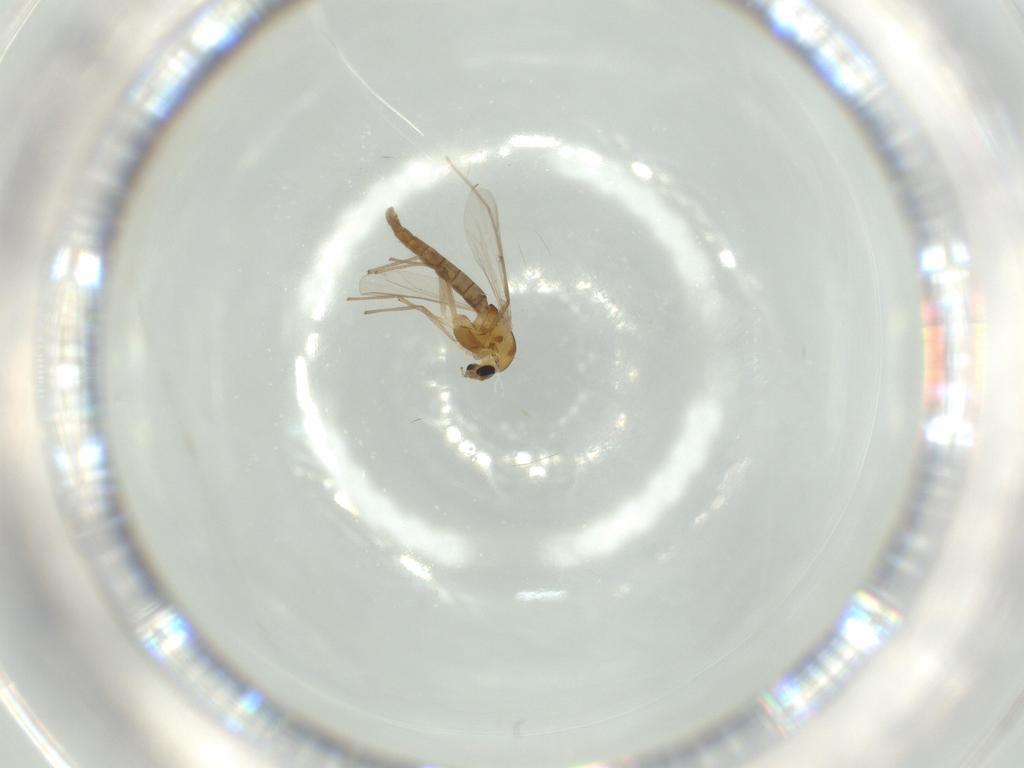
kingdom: Animalia
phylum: Arthropoda
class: Insecta
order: Diptera
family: Chironomidae
